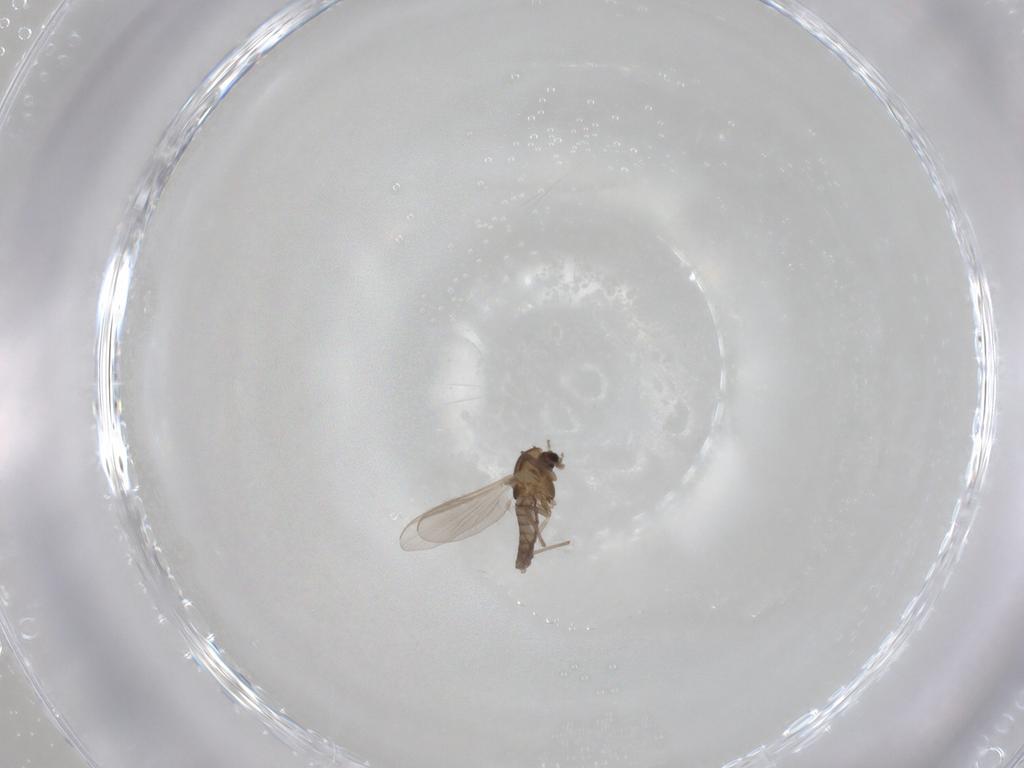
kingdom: Animalia
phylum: Arthropoda
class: Insecta
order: Diptera
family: Chironomidae
